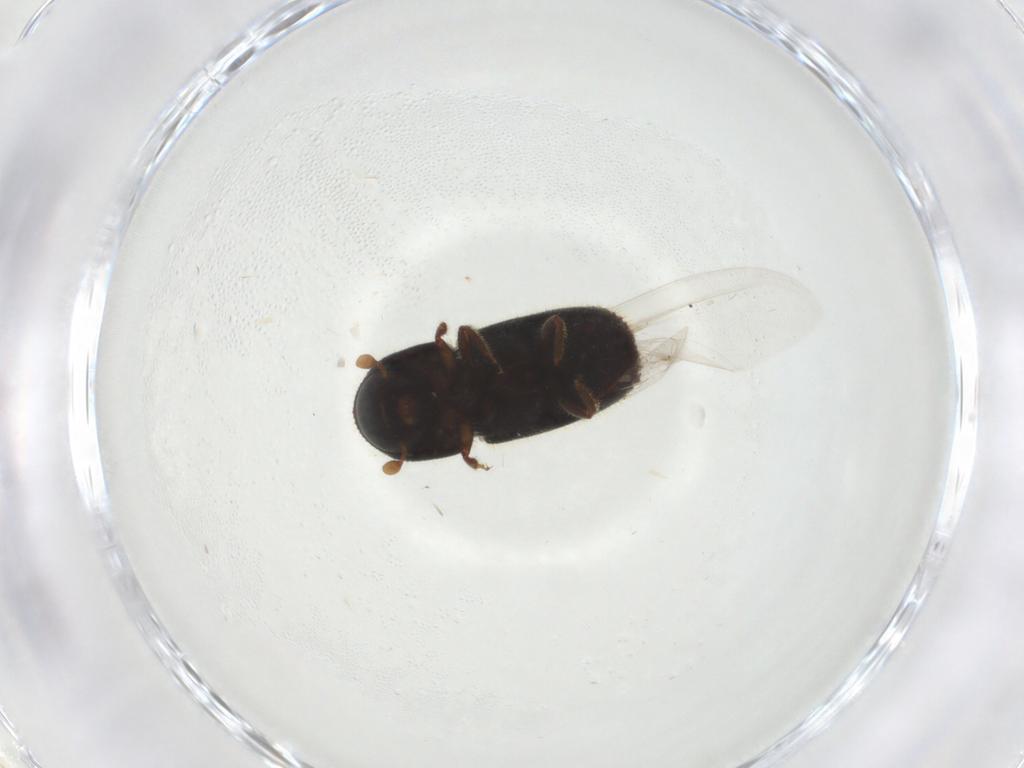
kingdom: Animalia
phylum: Arthropoda
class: Insecta
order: Coleoptera
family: Curculionidae
